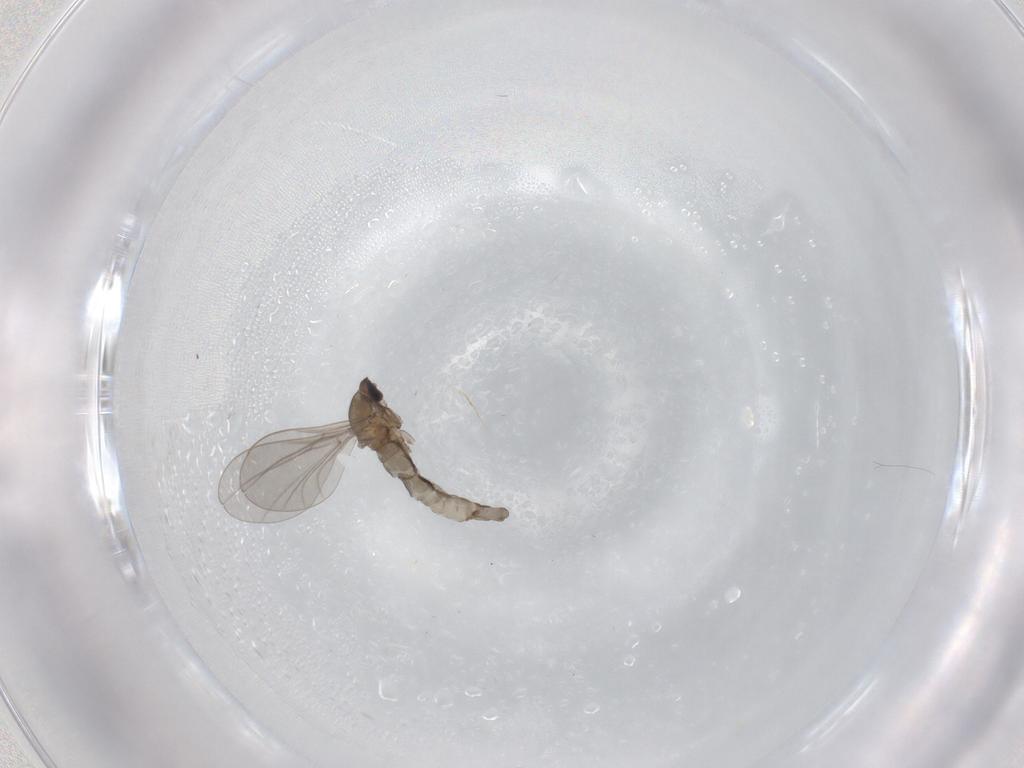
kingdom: Animalia
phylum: Arthropoda
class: Insecta
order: Diptera
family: Cecidomyiidae
